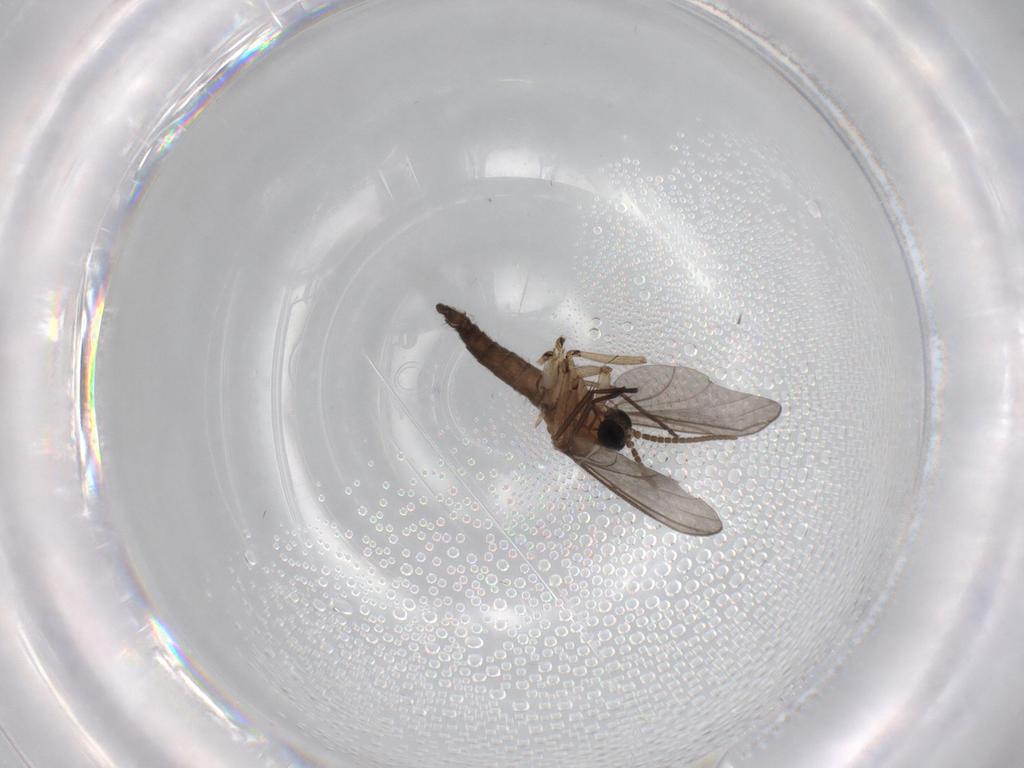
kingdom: Animalia
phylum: Arthropoda
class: Insecta
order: Diptera
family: Sciaridae
